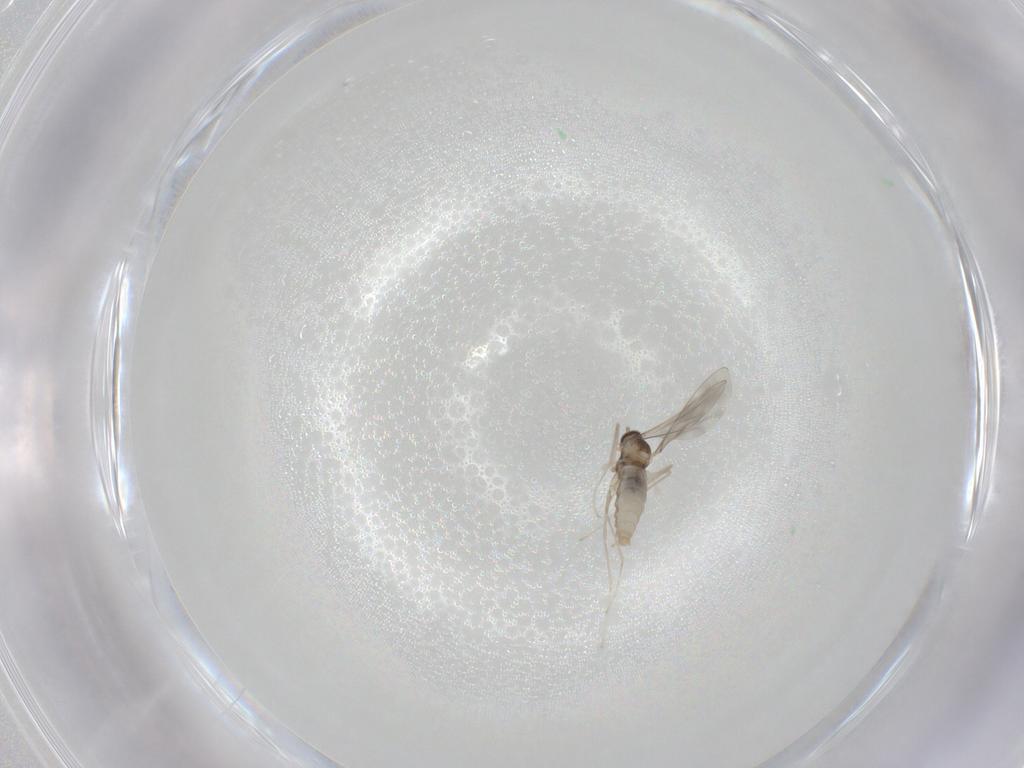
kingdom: Animalia
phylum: Arthropoda
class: Insecta
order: Diptera
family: Cecidomyiidae
